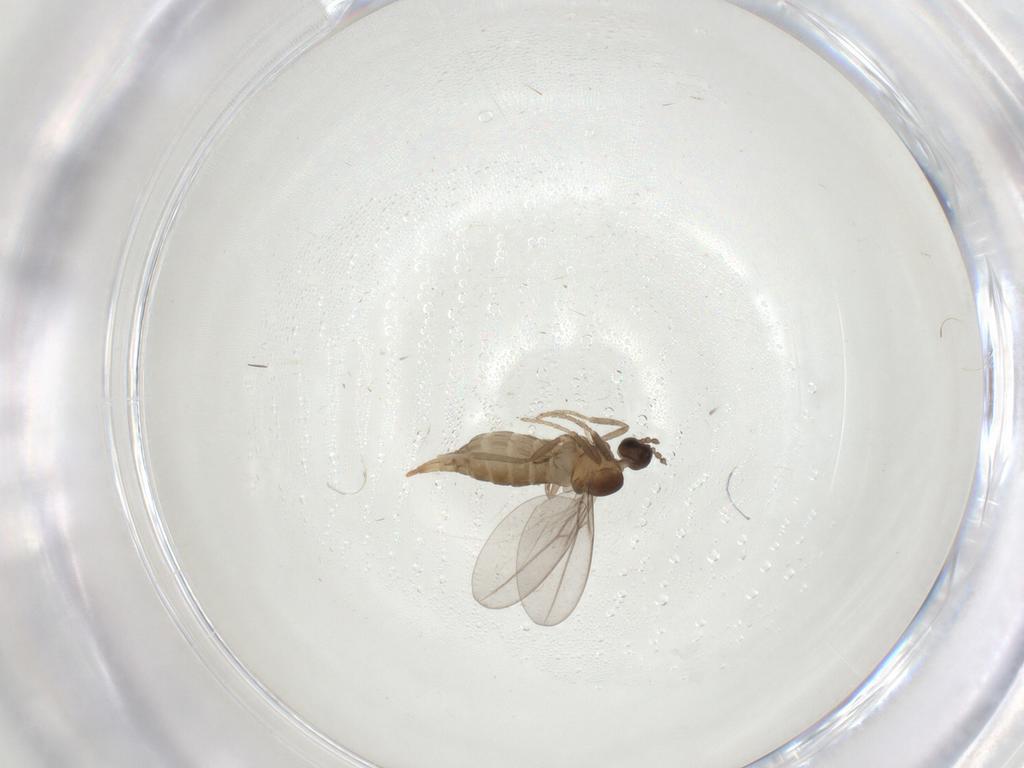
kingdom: Animalia
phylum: Arthropoda
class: Insecta
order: Diptera
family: Cecidomyiidae
